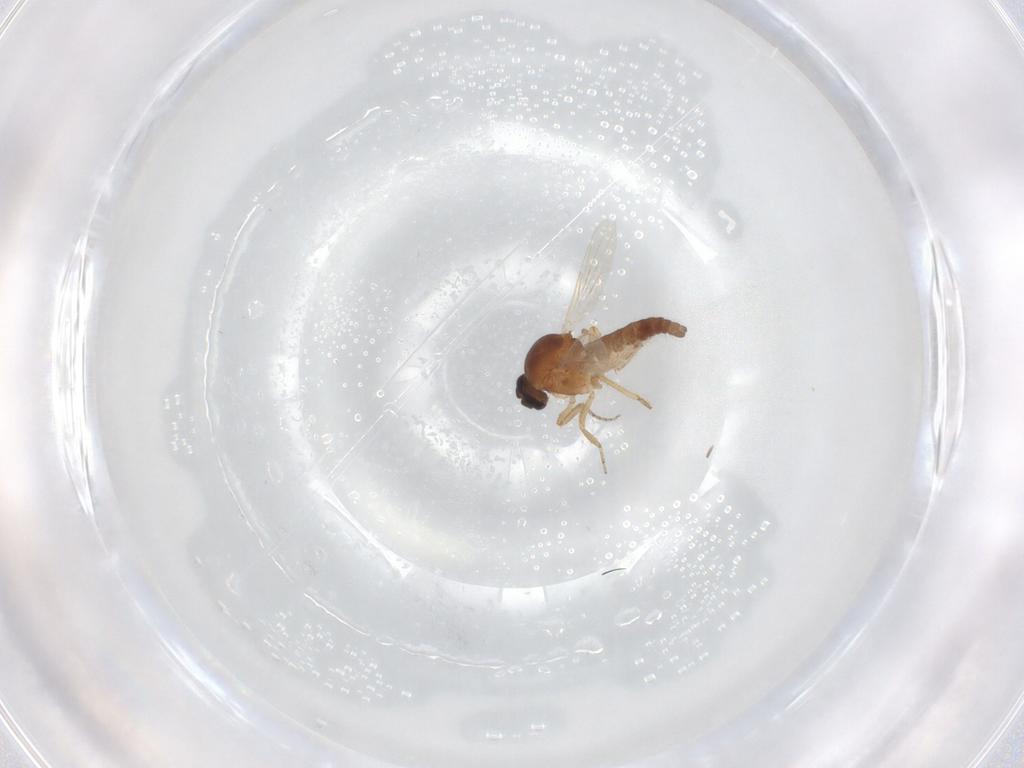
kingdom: Animalia
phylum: Arthropoda
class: Insecta
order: Diptera
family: Ceratopogonidae
